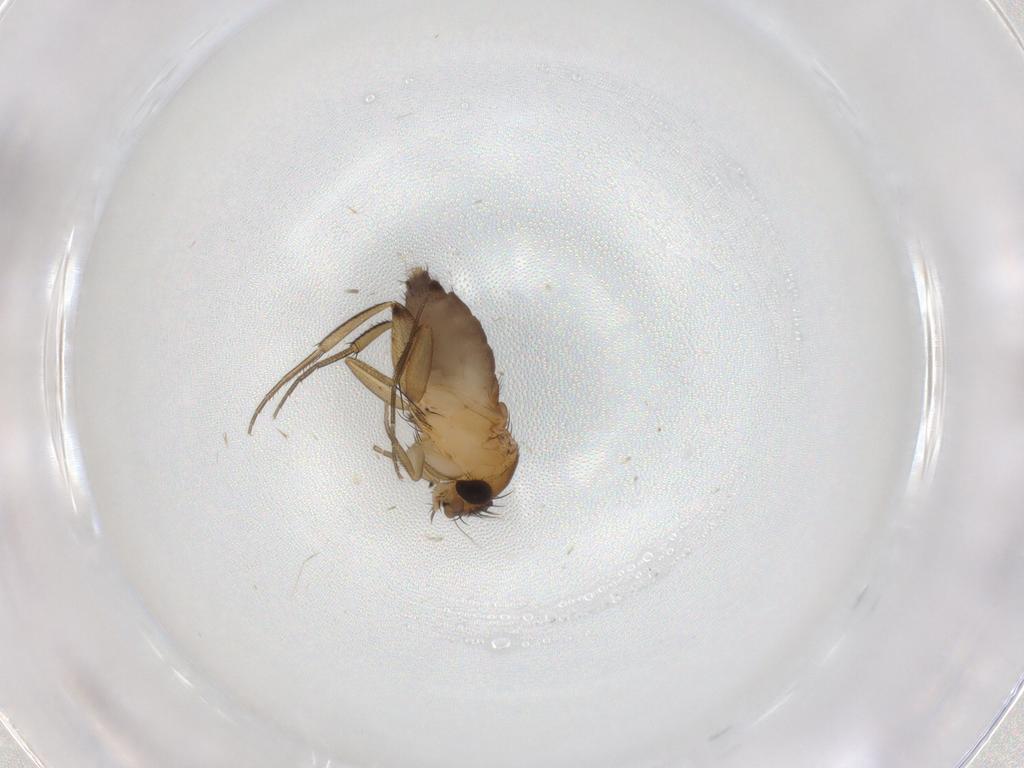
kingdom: Animalia
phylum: Arthropoda
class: Insecta
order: Diptera
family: Phoridae
